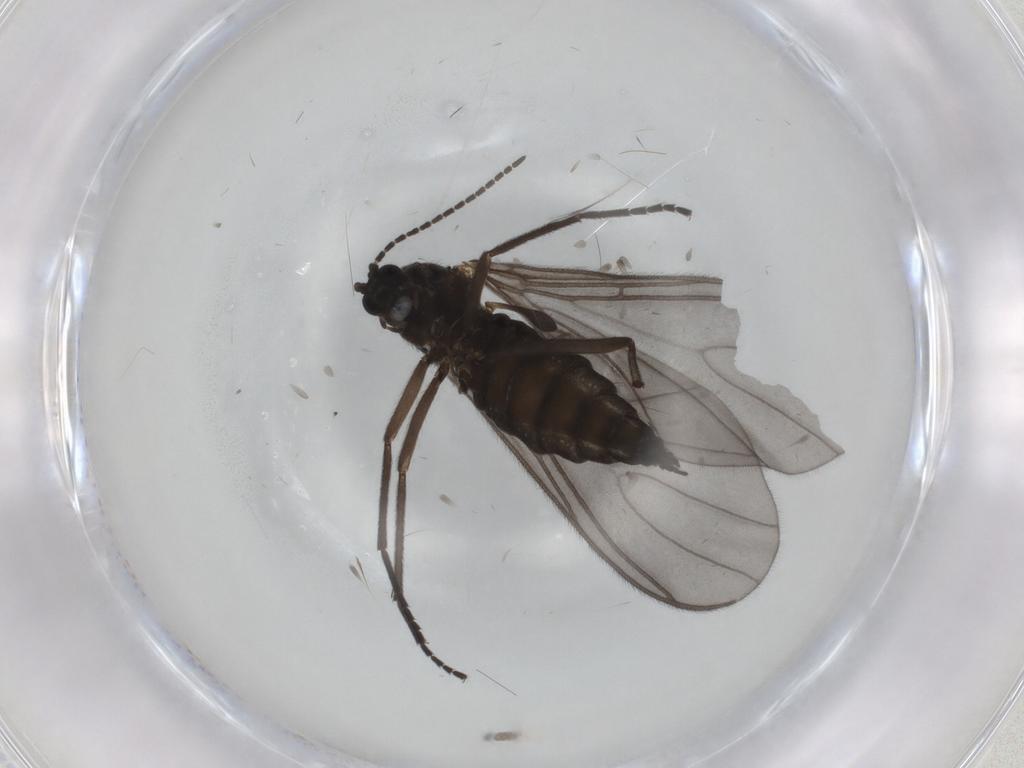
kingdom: Animalia
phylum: Arthropoda
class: Insecta
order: Diptera
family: Sciaridae
